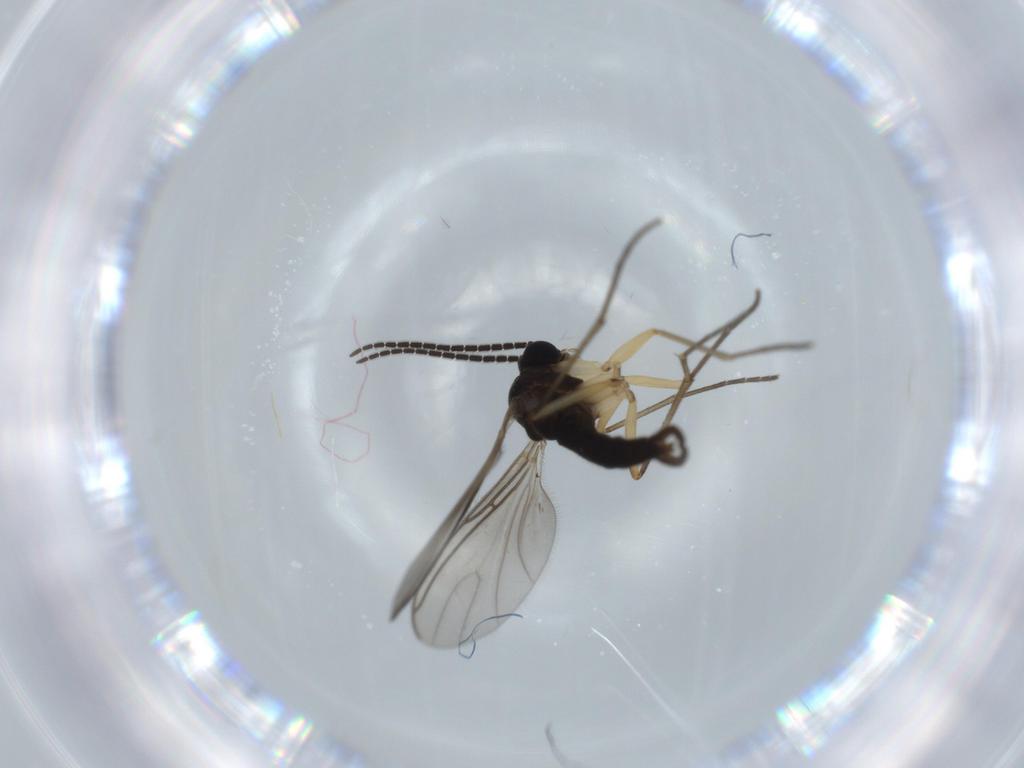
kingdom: Animalia
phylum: Arthropoda
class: Insecta
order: Diptera
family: Sciaridae
